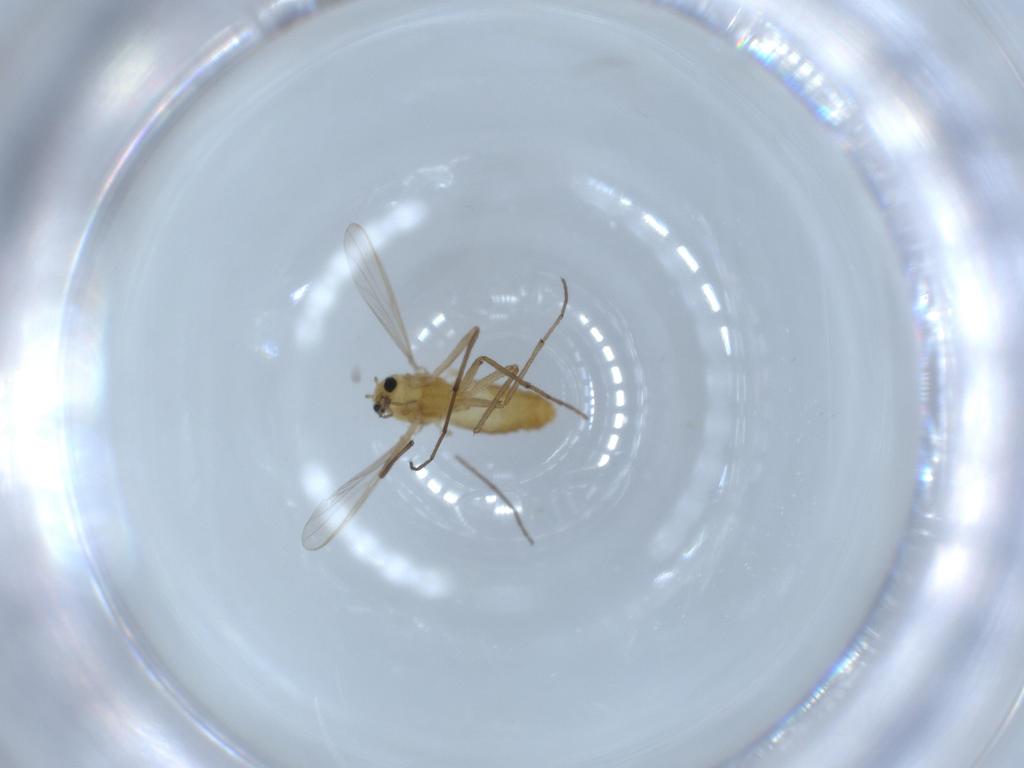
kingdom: Animalia
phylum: Arthropoda
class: Insecta
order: Diptera
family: Chironomidae
